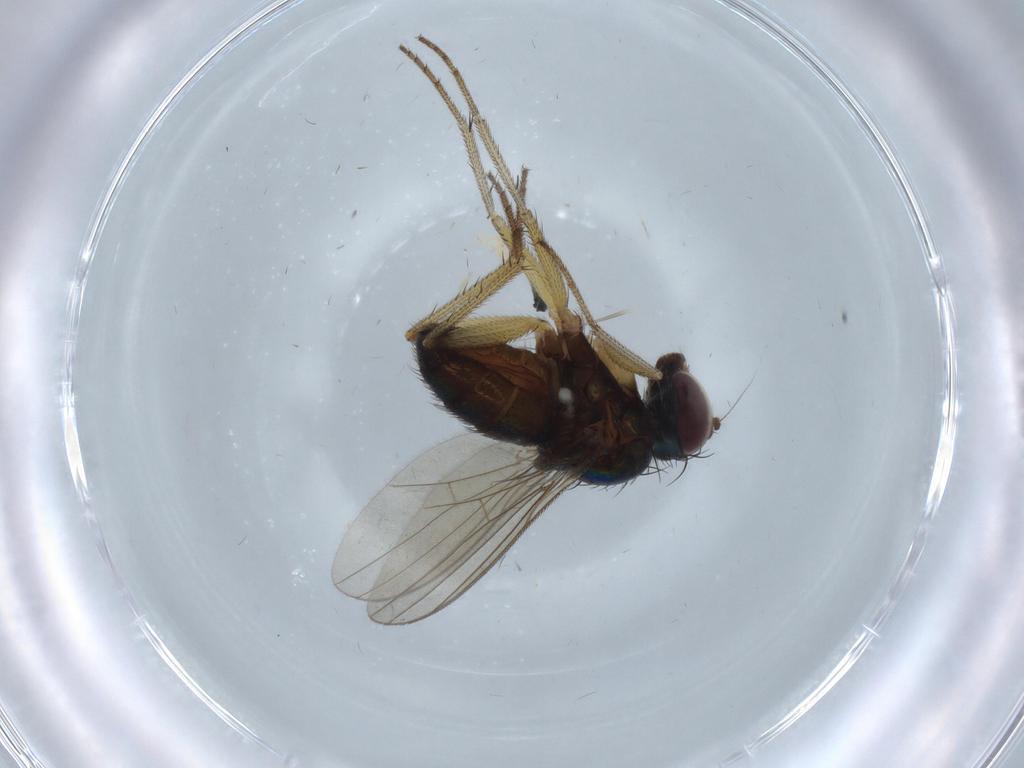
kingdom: Animalia
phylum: Arthropoda
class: Insecta
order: Diptera
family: Dolichopodidae
